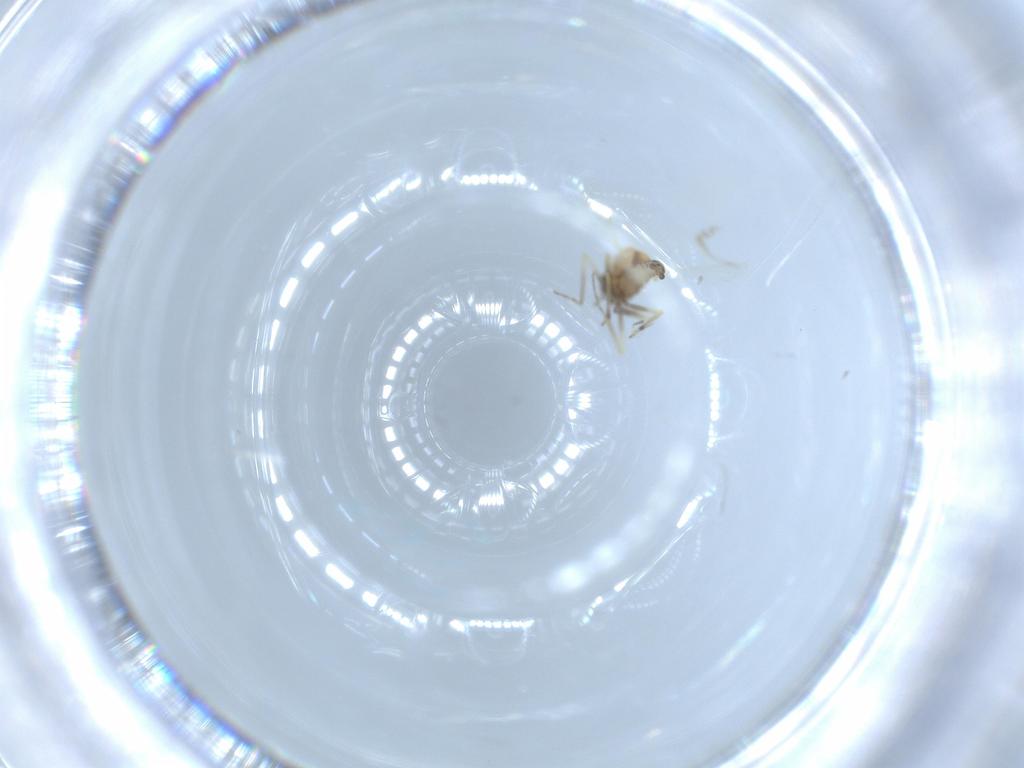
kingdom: Animalia
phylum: Arthropoda
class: Insecta
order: Diptera
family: Ceratopogonidae
